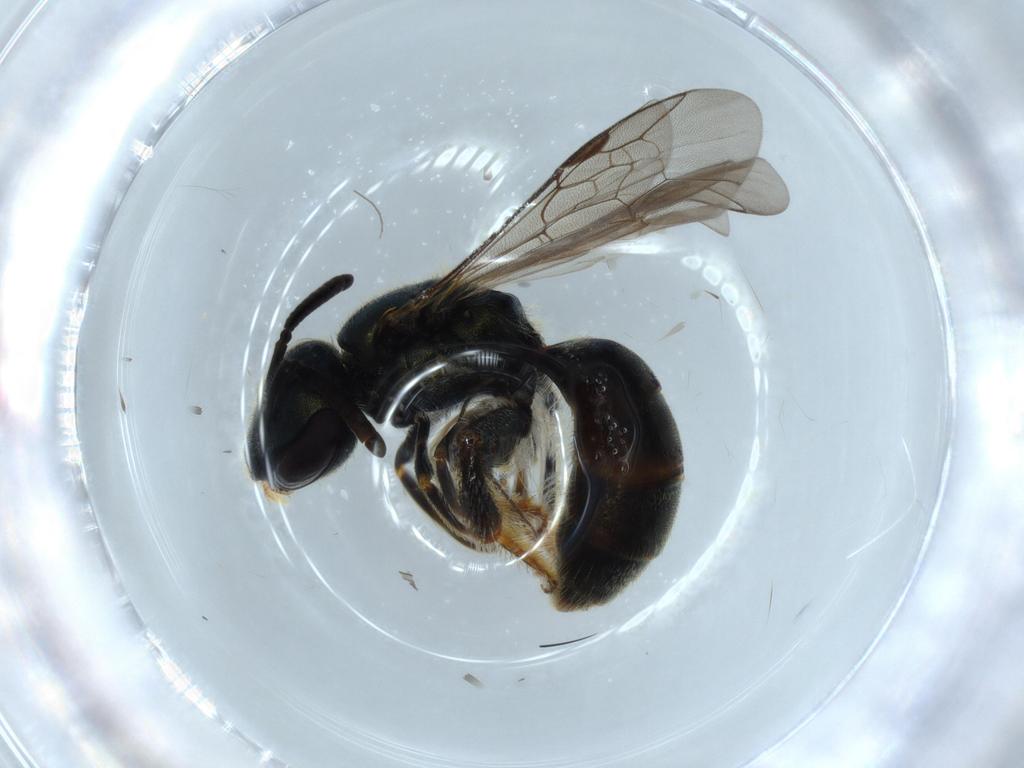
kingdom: Animalia
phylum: Arthropoda
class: Insecta
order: Hymenoptera
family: Halictidae
